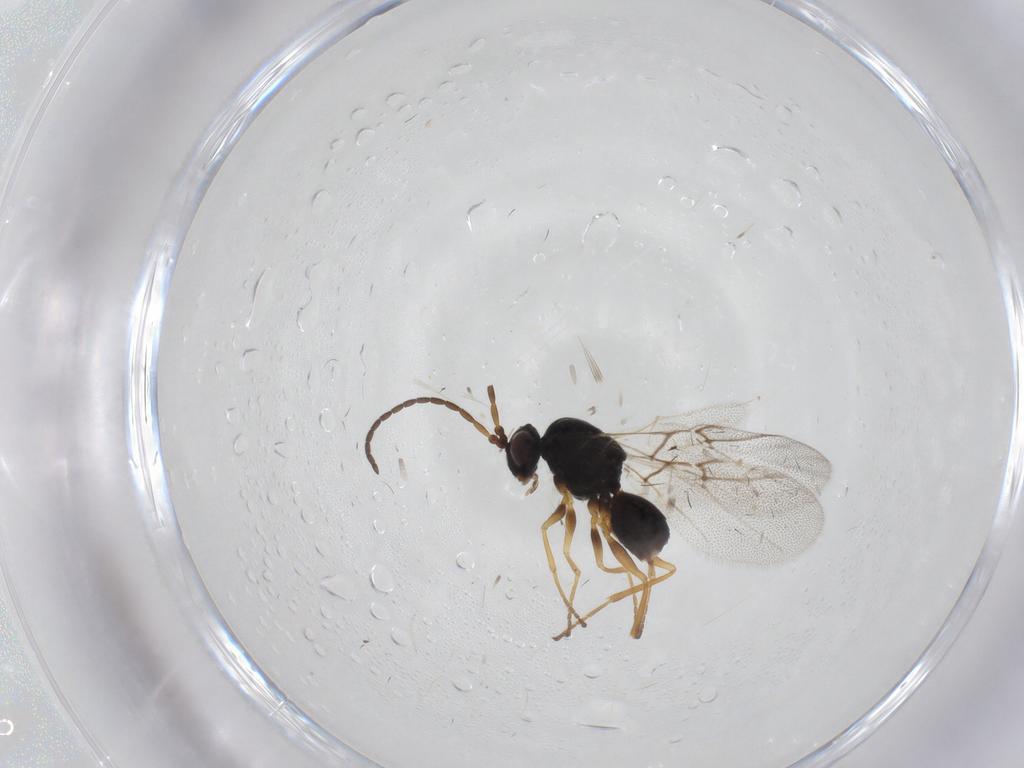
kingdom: Animalia
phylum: Arthropoda
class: Insecta
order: Hymenoptera
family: Cynipidae
